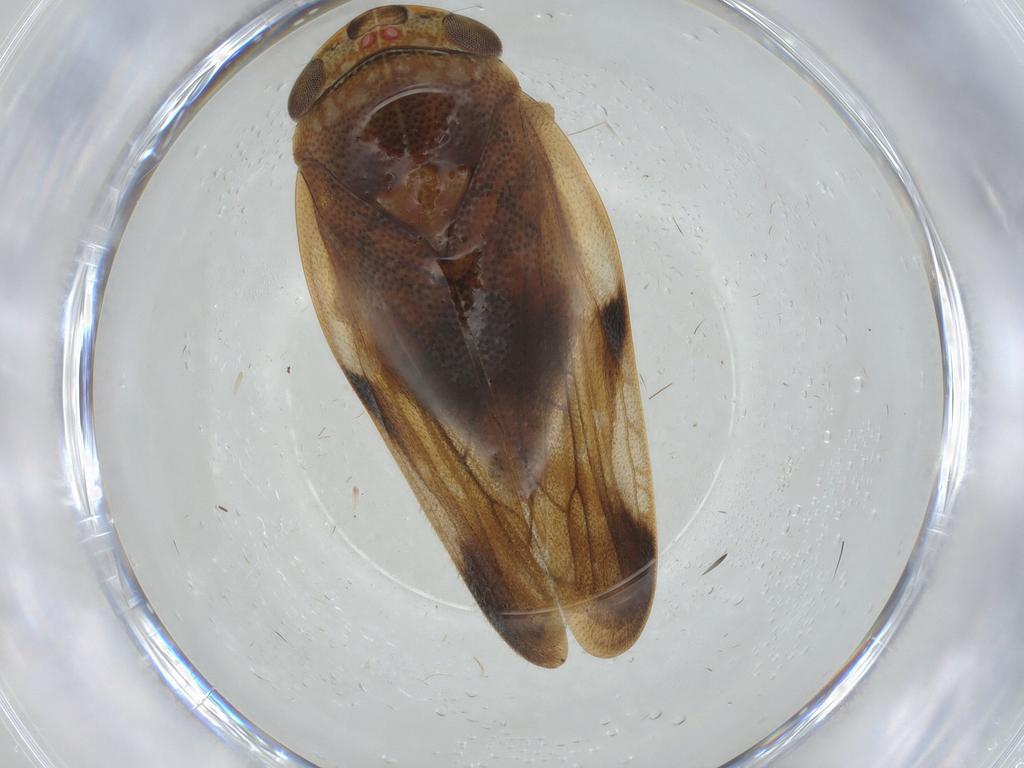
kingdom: Animalia
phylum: Arthropoda
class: Insecta
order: Hemiptera
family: Aphrophoridae
